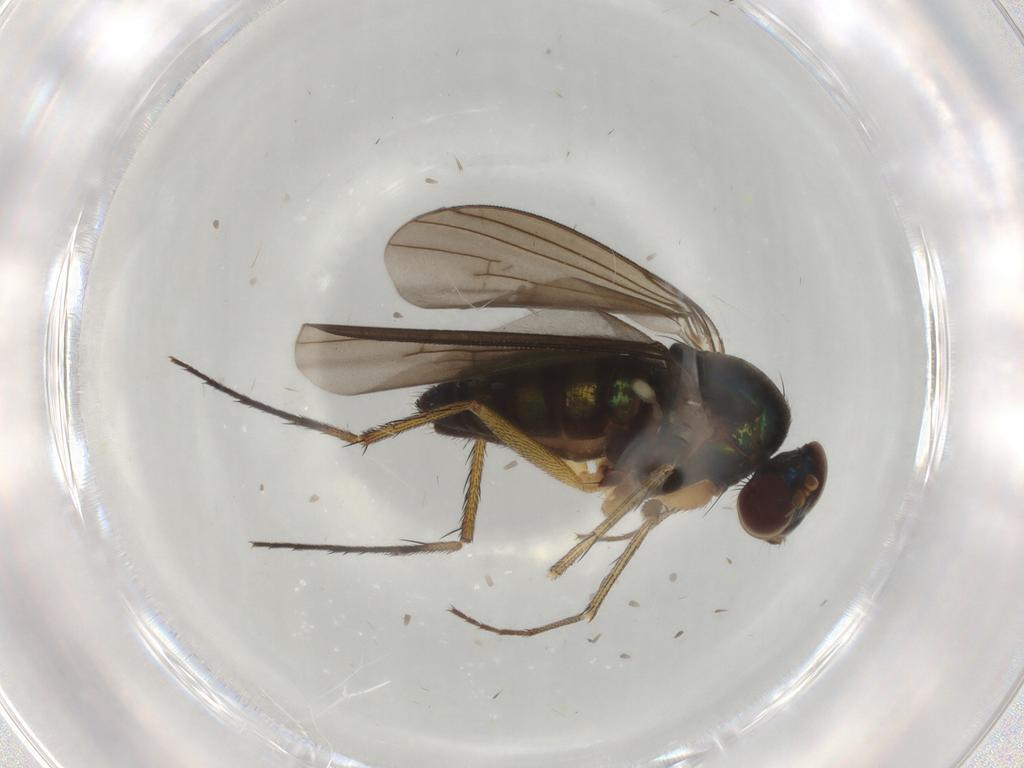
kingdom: Animalia
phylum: Arthropoda
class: Insecta
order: Diptera
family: Dolichopodidae
